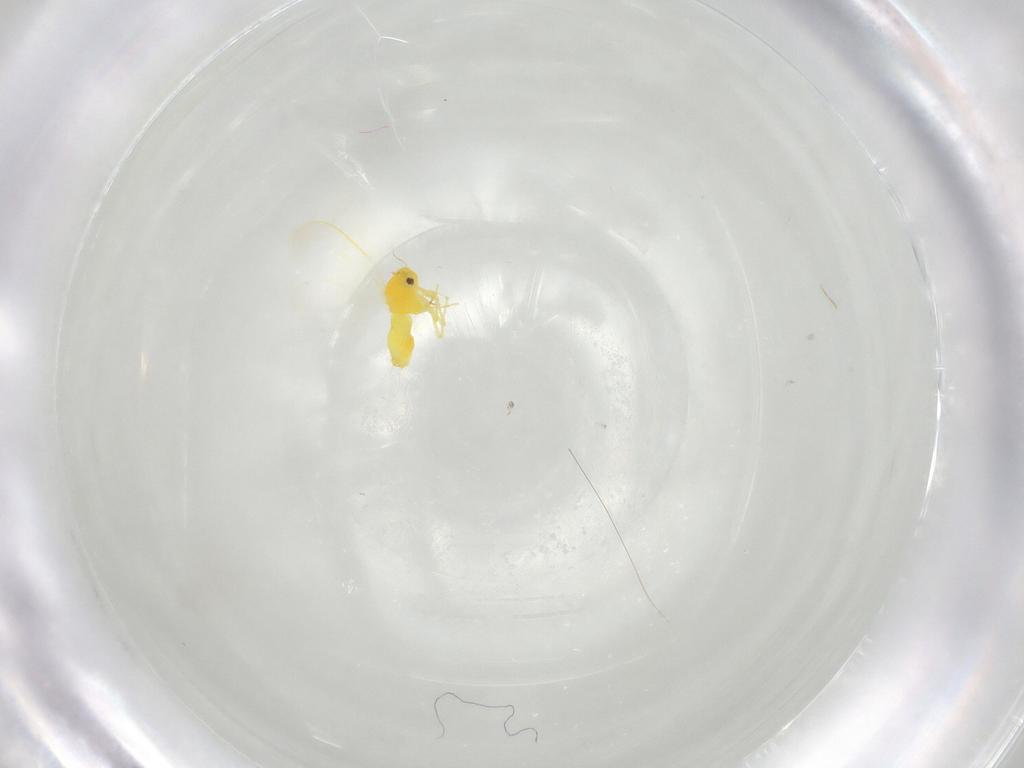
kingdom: Animalia
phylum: Arthropoda
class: Insecta
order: Hemiptera
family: Aleyrodidae
